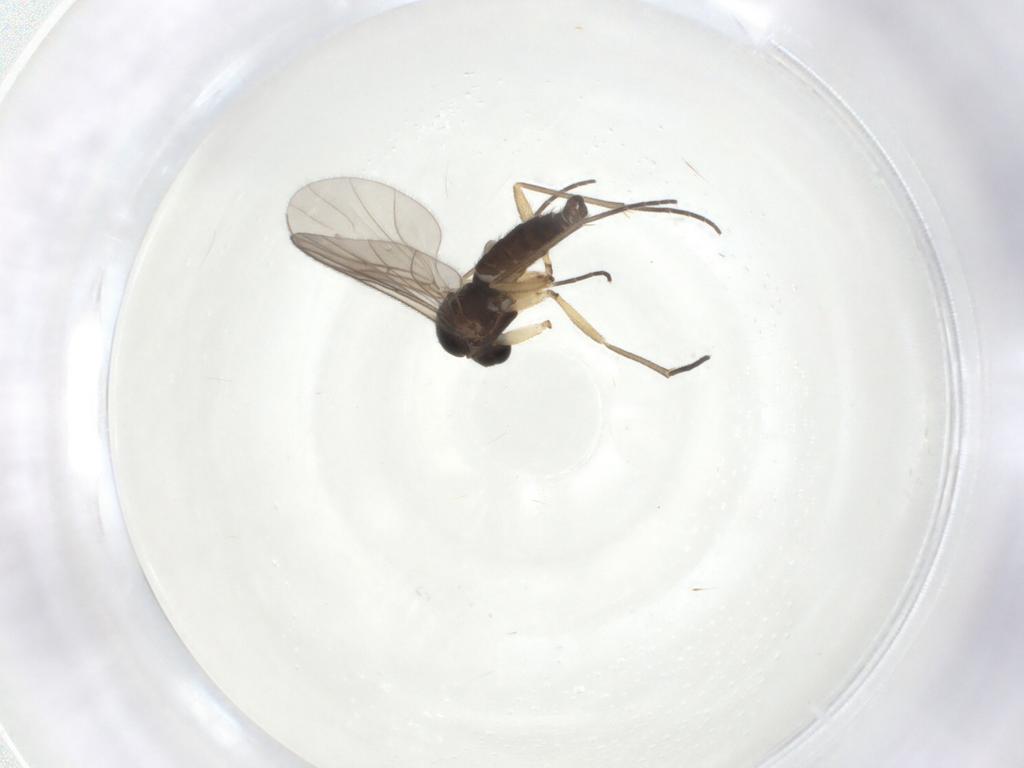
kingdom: Animalia
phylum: Arthropoda
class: Insecta
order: Diptera
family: Sciaridae
